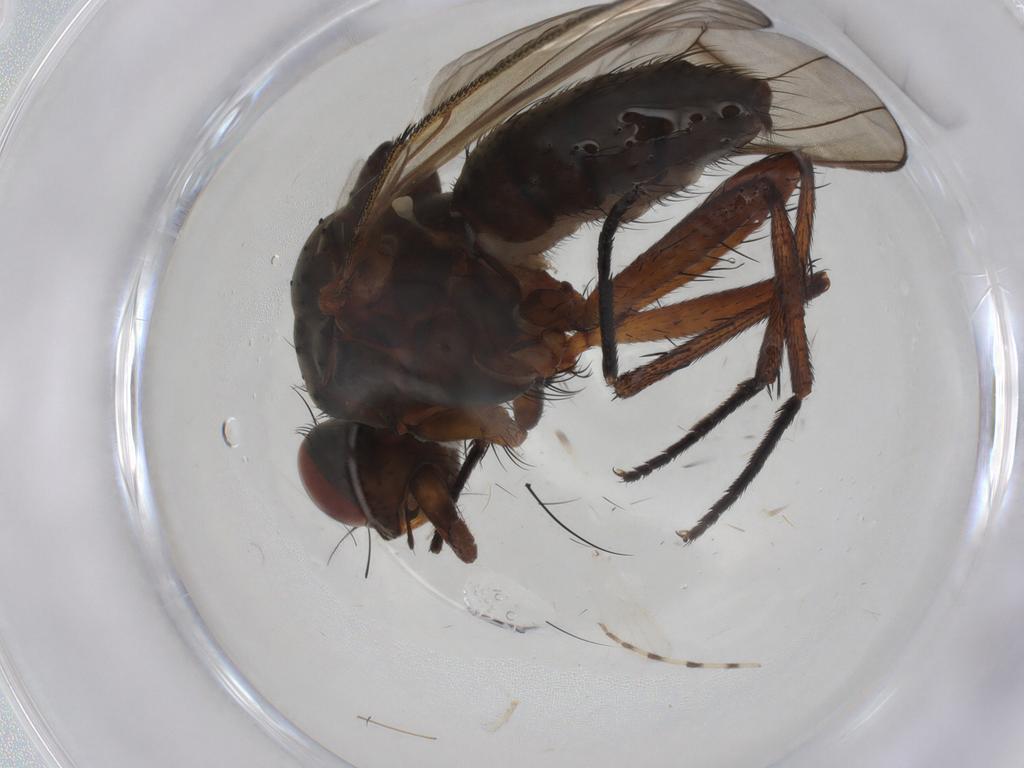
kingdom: Animalia
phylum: Arthropoda
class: Insecta
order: Diptera
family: Anthomyiidae
